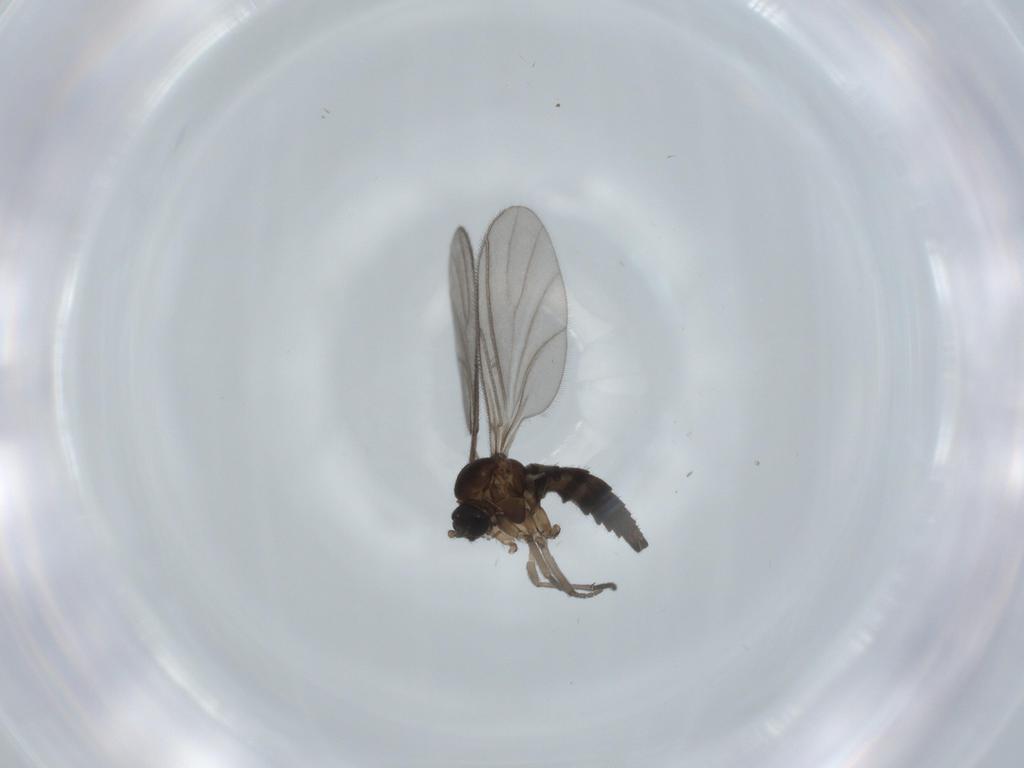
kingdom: Animalia
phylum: Arthropoda
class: Insecta
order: Diptera
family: Sciaridae
